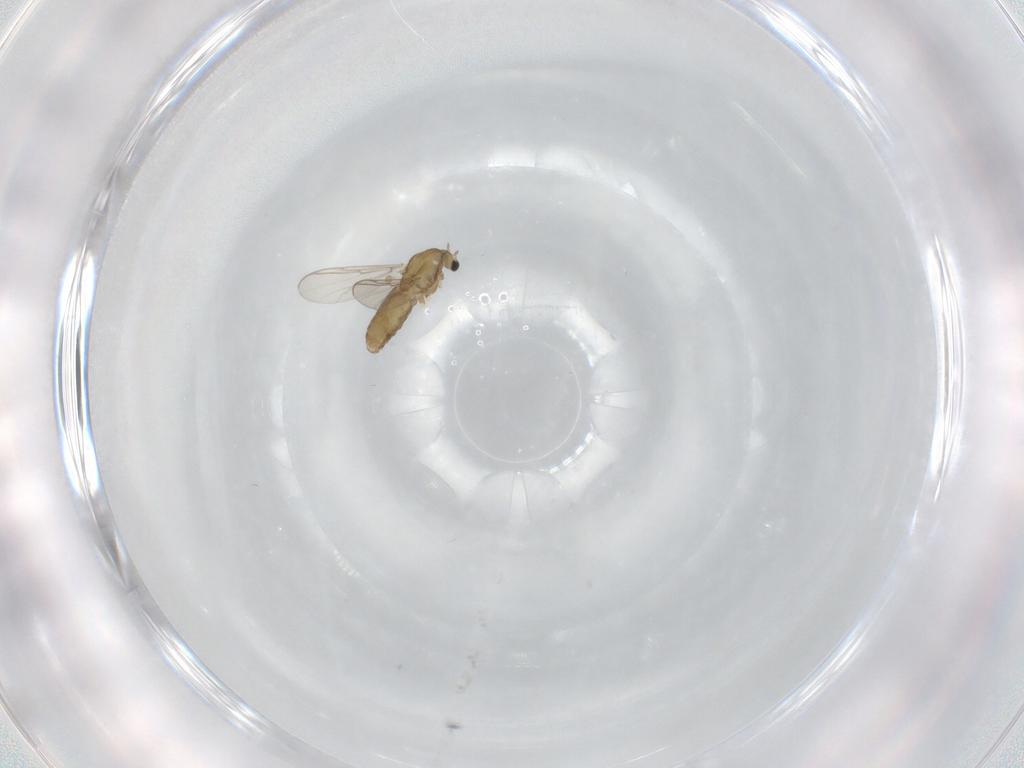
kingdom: Animalia
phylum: Arthropoda
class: Insecta
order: Diptera
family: Chironomidae
